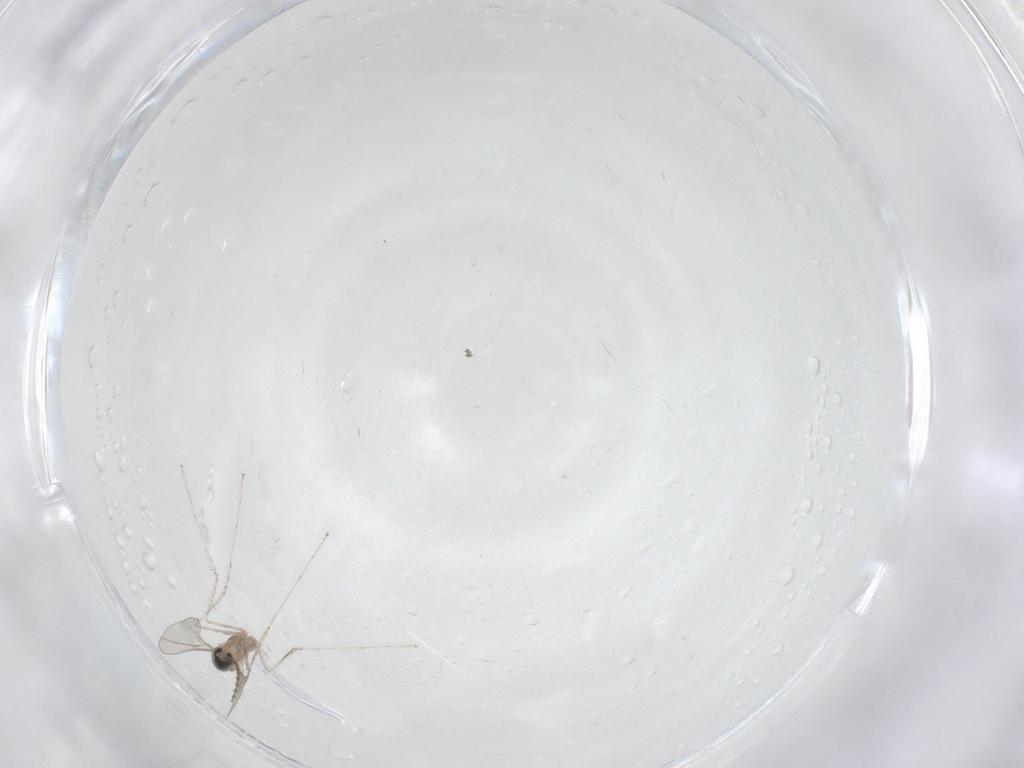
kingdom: Animalia
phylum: Arthropoda
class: Insecta
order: Diptera
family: Cecidomyiidae
